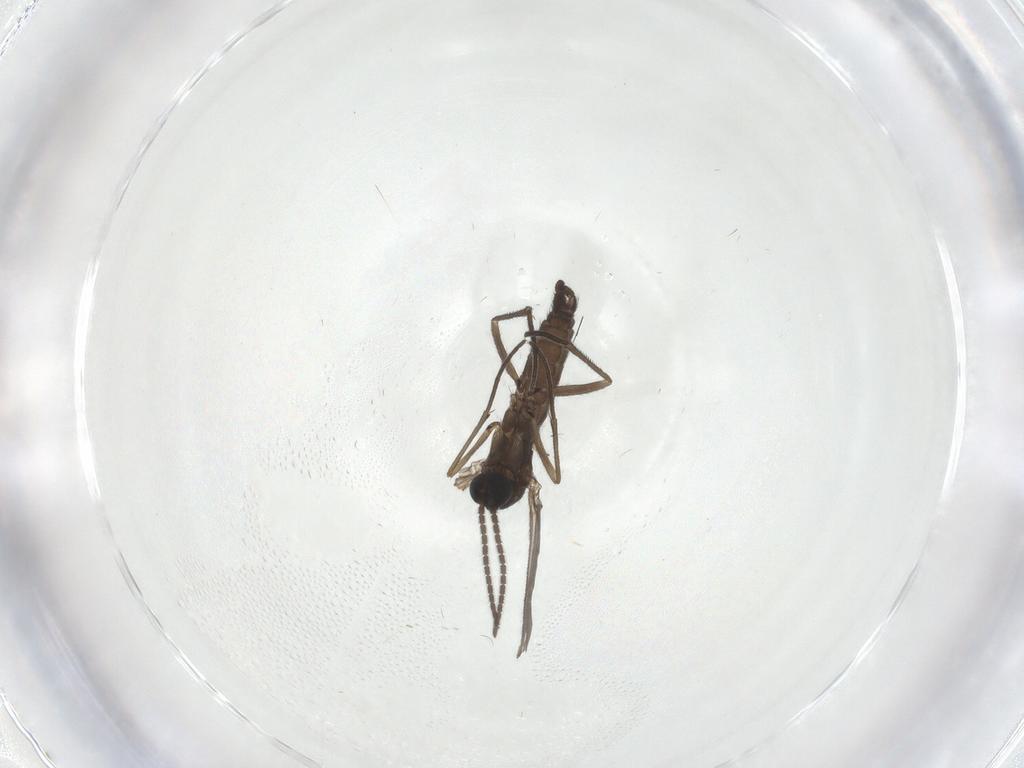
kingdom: Animalia
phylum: Arthropoda
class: Insecta
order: Diptera
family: Sciaridae
